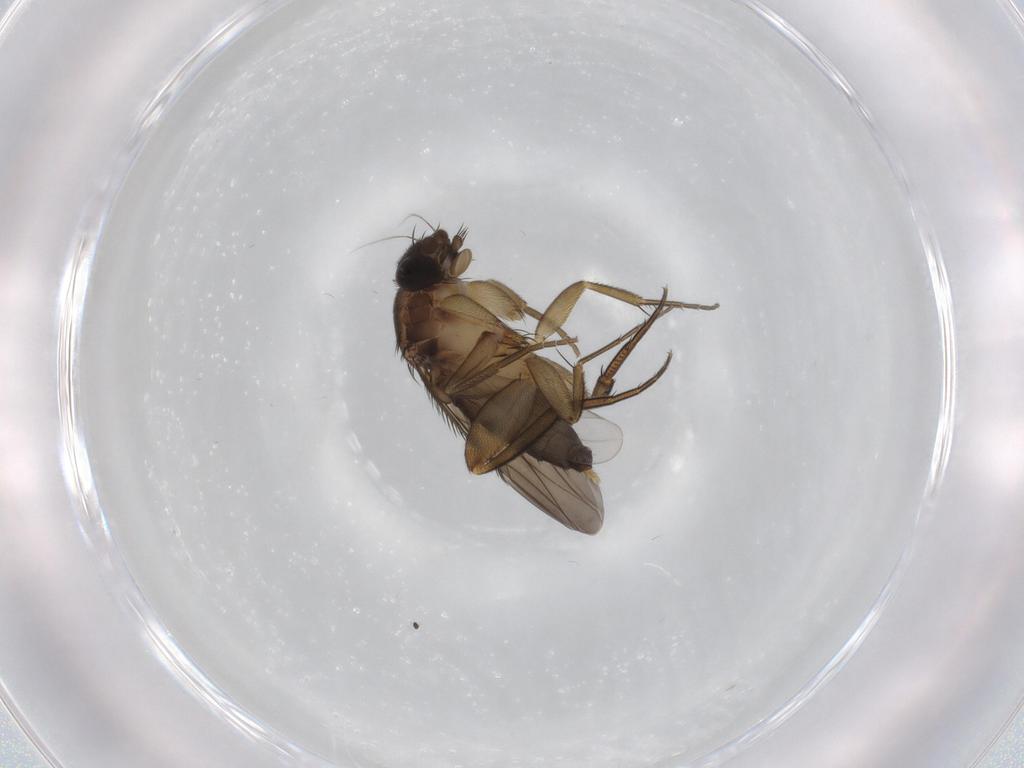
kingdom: Animalia
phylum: Arthropoda
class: Insecta
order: Diptera
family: Phoridae
